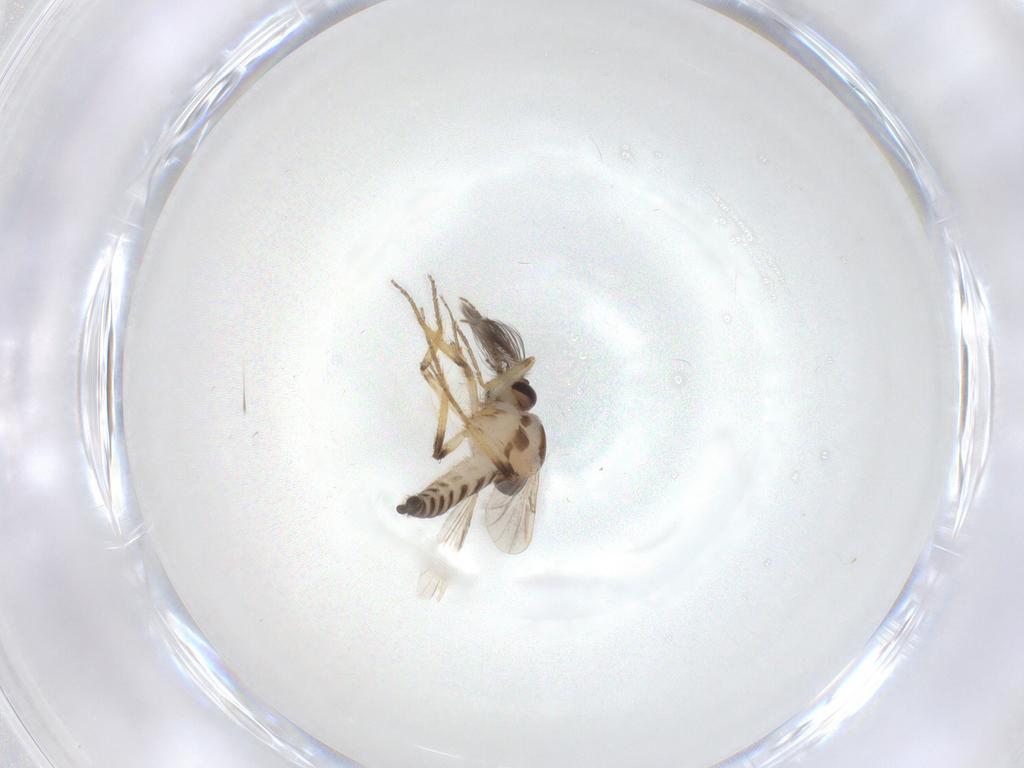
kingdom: Animalia
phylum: Arthropoda
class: Insecta
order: Diptera
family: Ceratopogonidae
